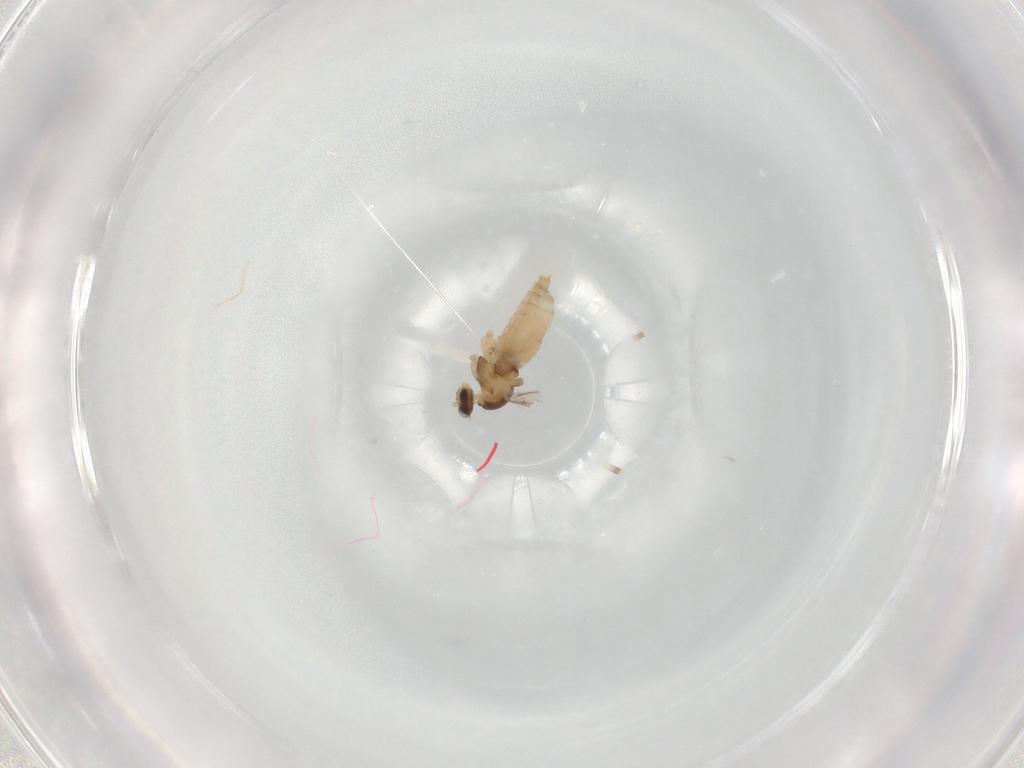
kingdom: Animalia
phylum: Arthropoda
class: Insecta
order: Diptera
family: Cecidomyiidae
